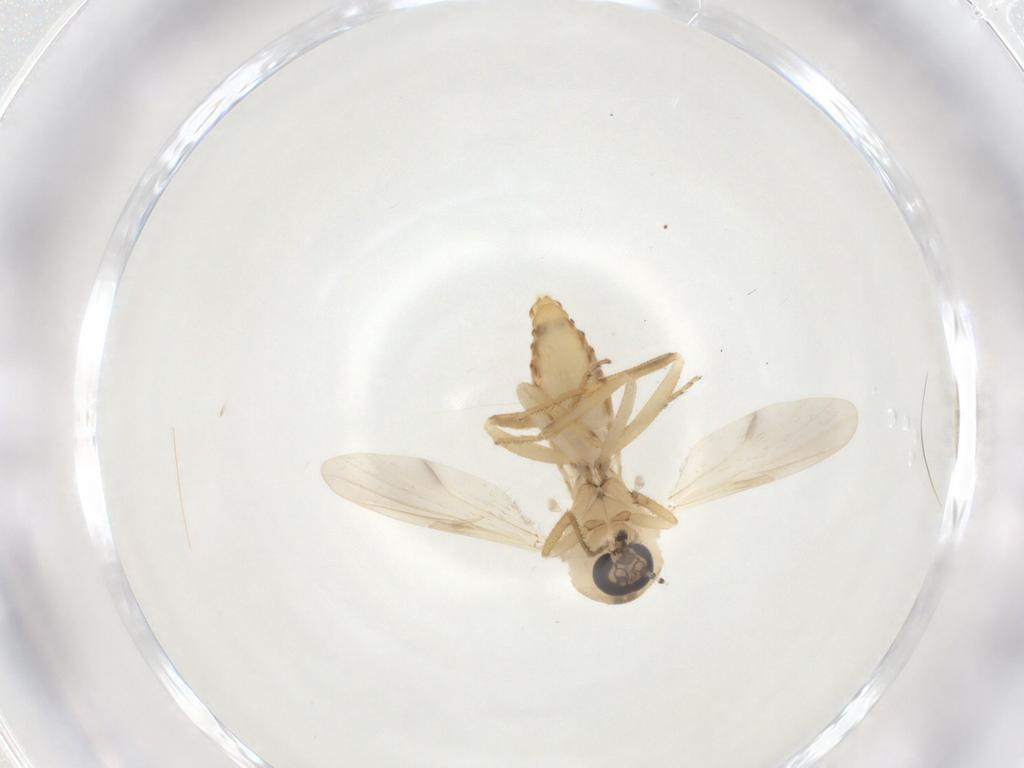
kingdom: Animalia
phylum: Arthropoda
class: Insecta
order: Diptera
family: Ceratopogonidae
